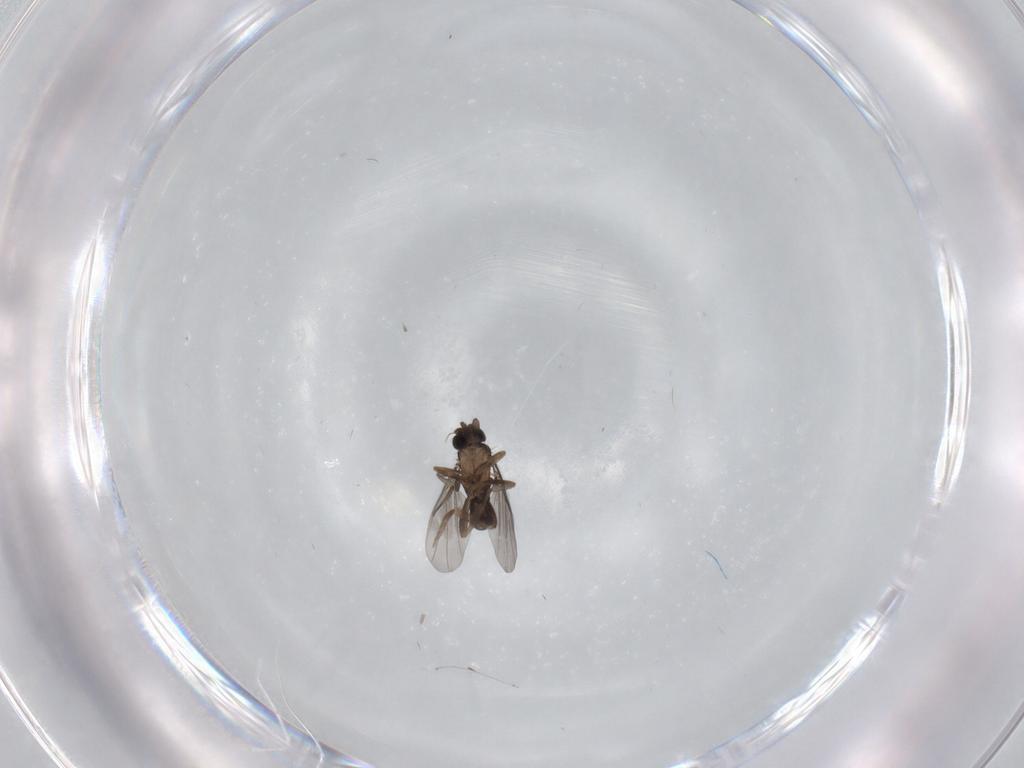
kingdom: Animalia
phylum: Arthropoda
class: Insecta
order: Diptera
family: Cecidomyiidae
